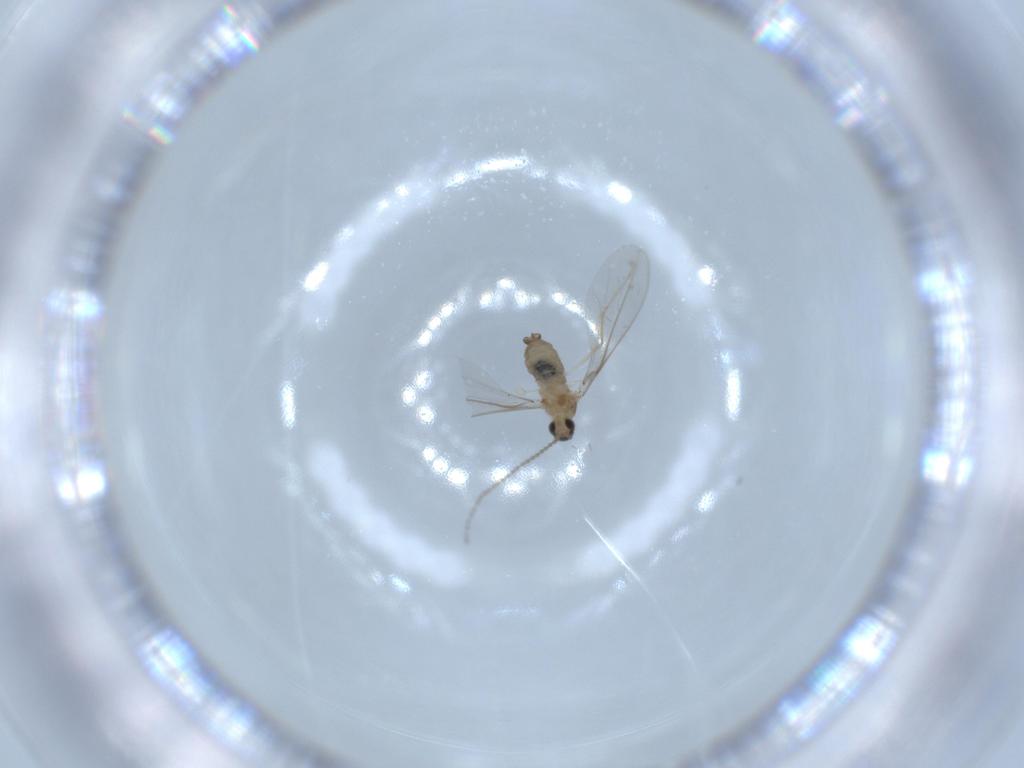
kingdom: Animalia
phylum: Arthropoda
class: Insecta
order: Diptera
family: Cecidomyiidae
